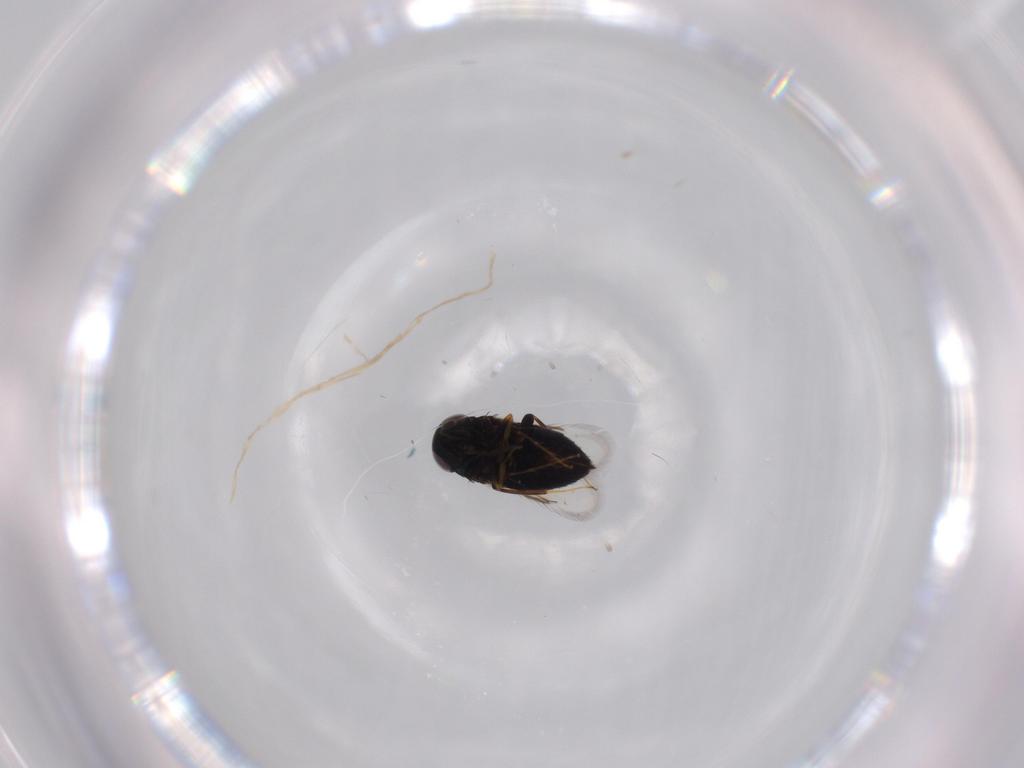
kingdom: Animalia
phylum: Arthropoda
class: Insecta
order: Hymenoptera
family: Signiphoridae
